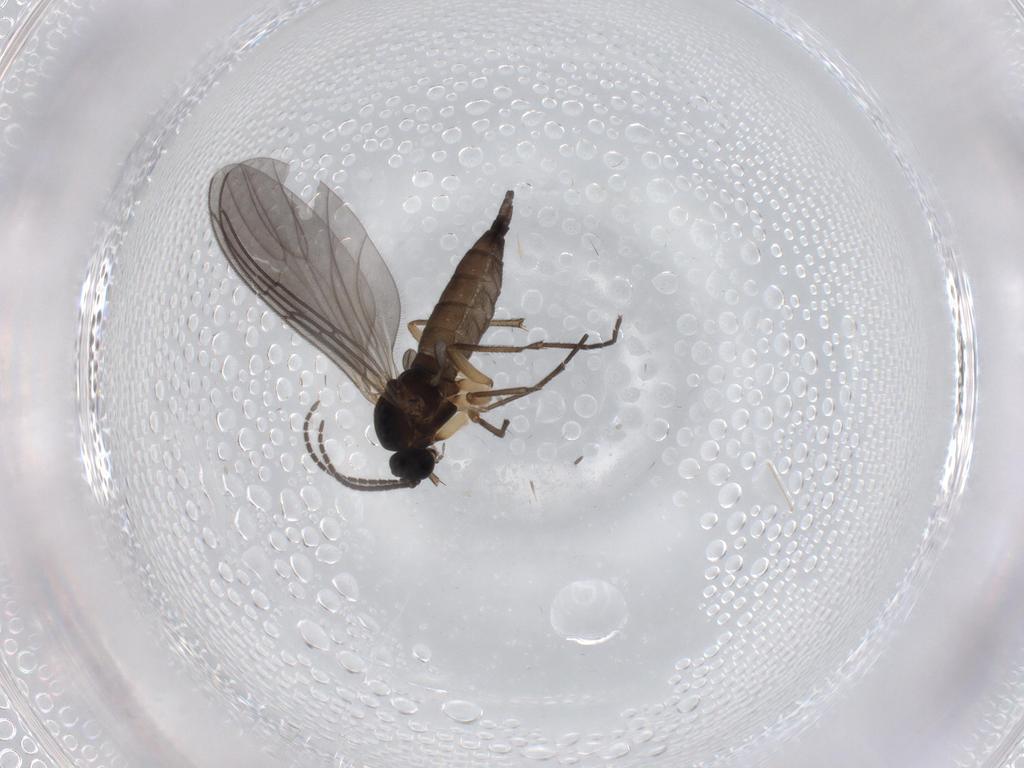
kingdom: Animalia
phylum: Arthropoda
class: Insecta
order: Diptera
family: Sciaridae
